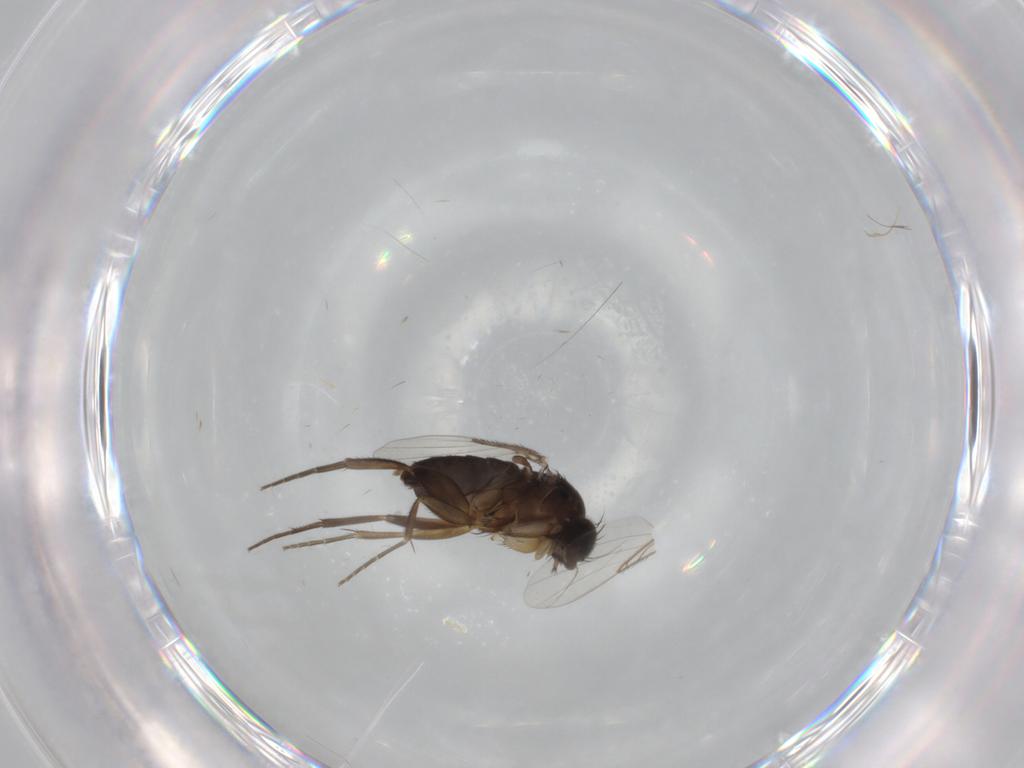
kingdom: Animalia
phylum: Arthropoda
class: Insecta
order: Diptera
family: Phoridae
